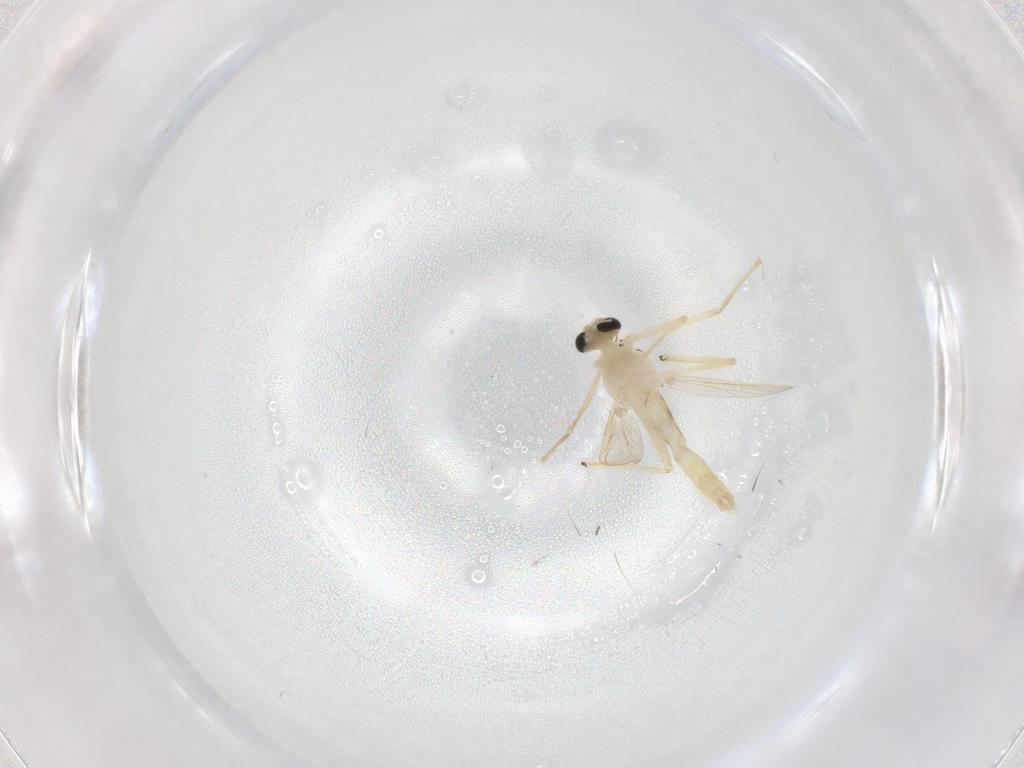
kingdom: Animalia
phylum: Arthropoda
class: Insecta
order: Diptera
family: Chironomidae
